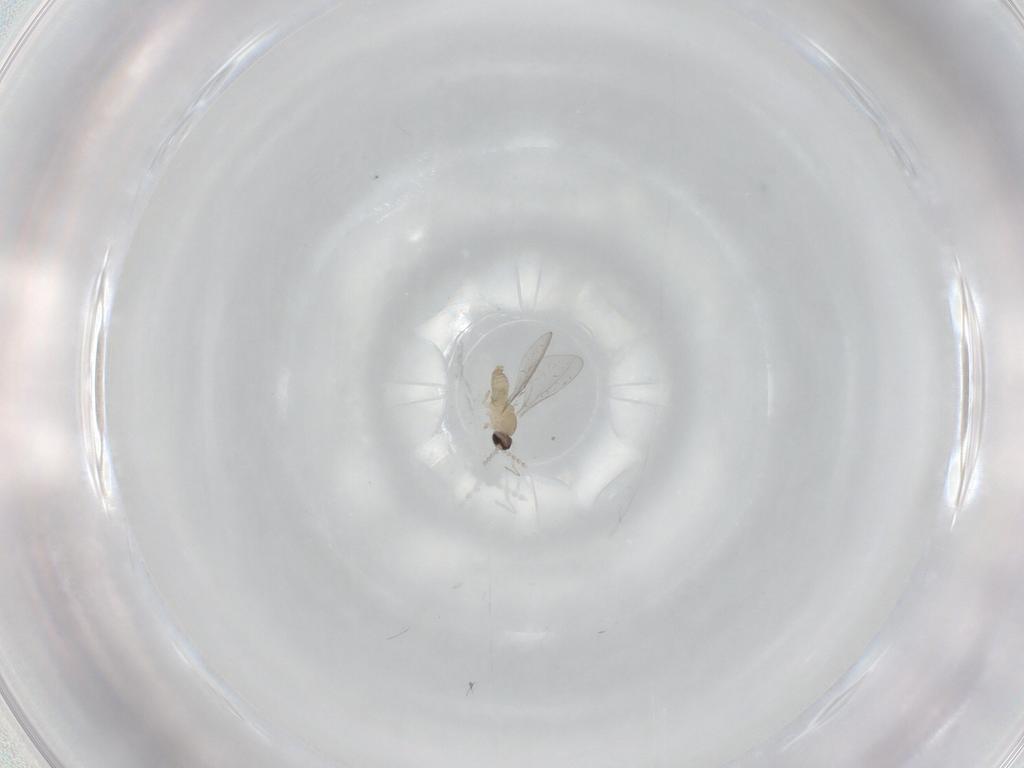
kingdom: Animalia
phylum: Arthropoda
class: Insecta
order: Diptera
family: Cecidomyiidae
